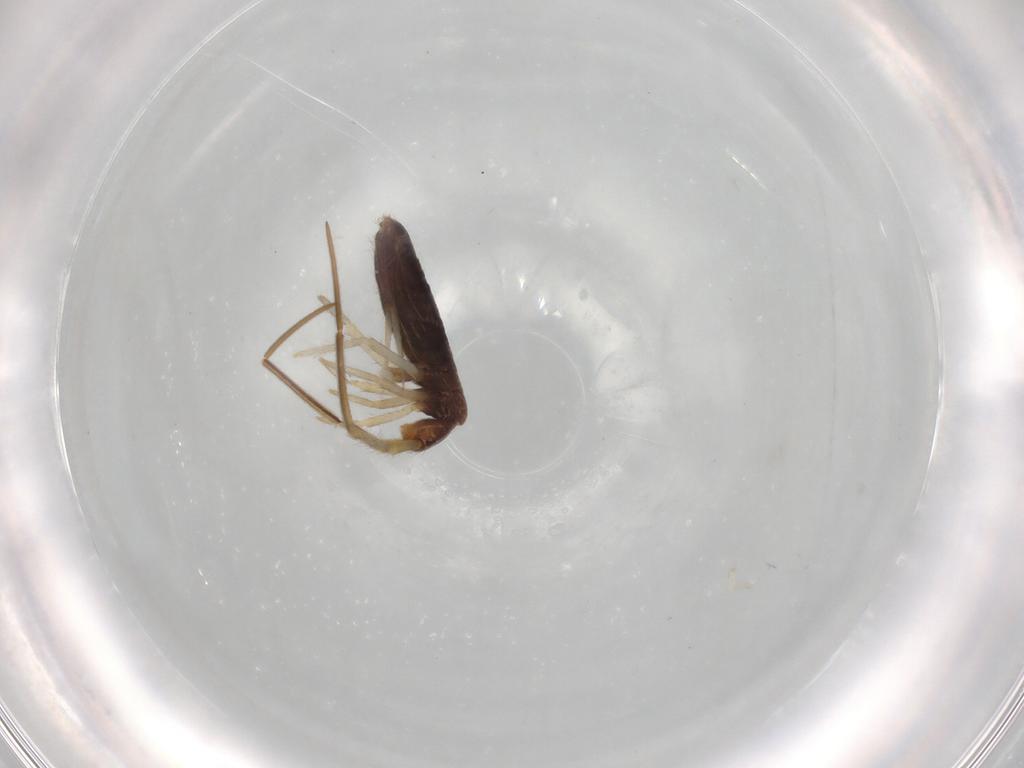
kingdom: Animalia
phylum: Arthropoda
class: Collembola
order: Entomobryomorpha
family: Entomobryidae
